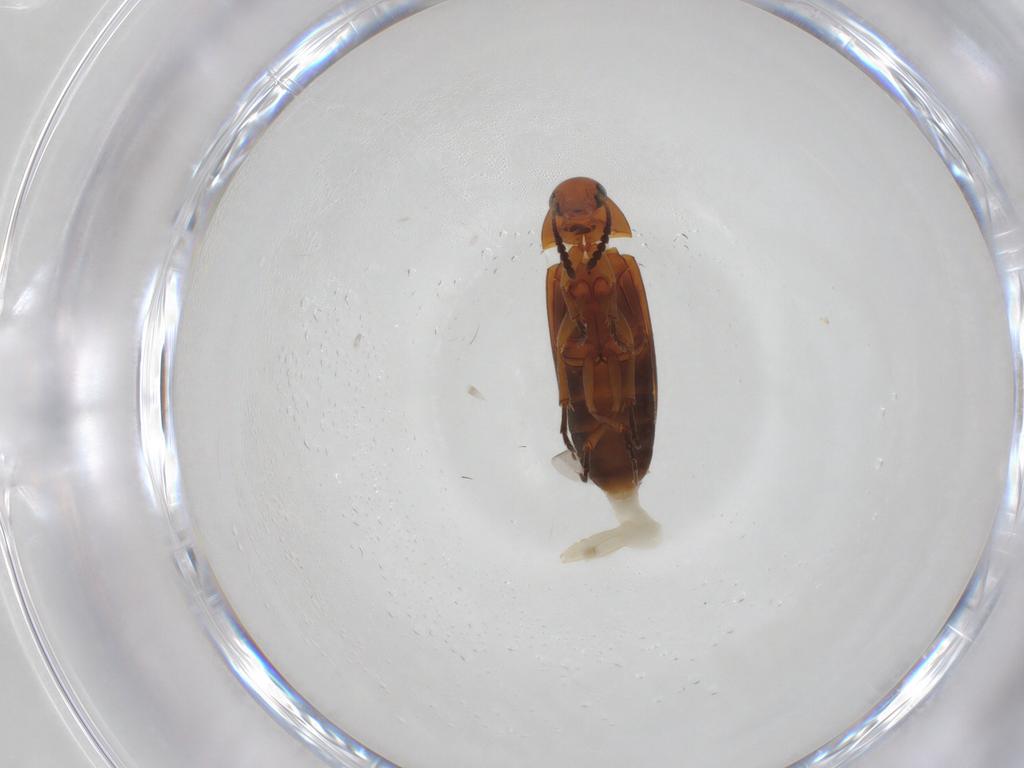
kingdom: Animalia
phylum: Arthropoda
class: Insecta
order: Coleoptera
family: Scraptiidae
